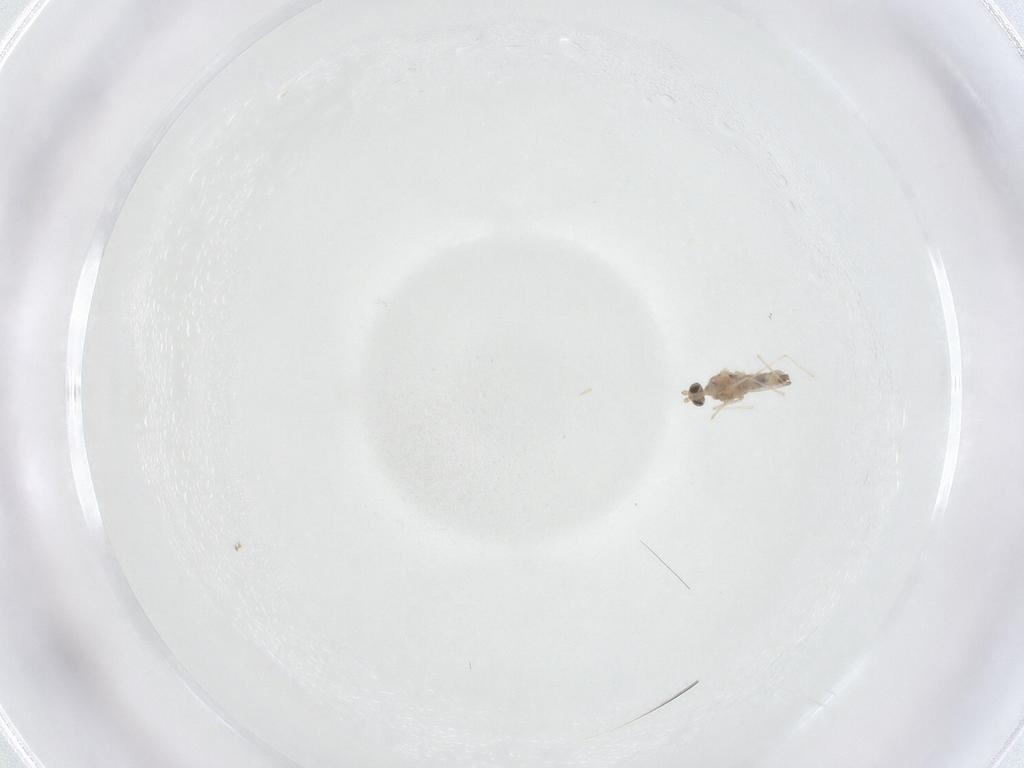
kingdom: Animalia
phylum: Arthropoda
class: Insecta
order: Diptera
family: Cecidomyiidae
